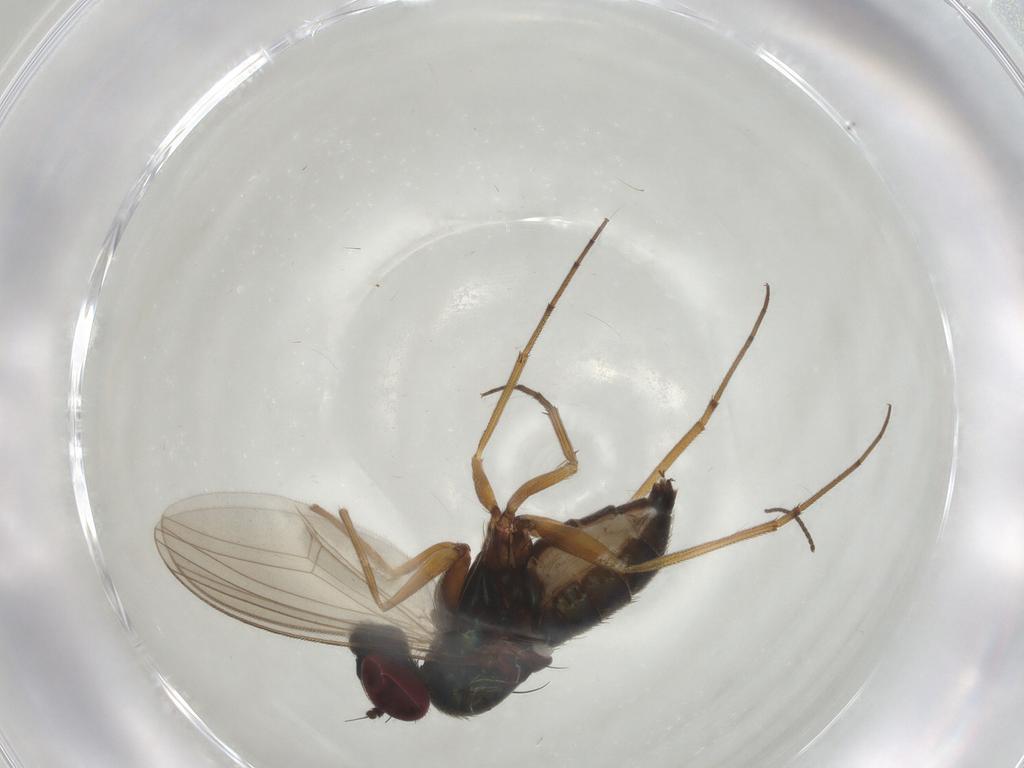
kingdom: Animalia
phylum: Arthropoda
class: Insecta
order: Diptera
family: Dolichopodidae
